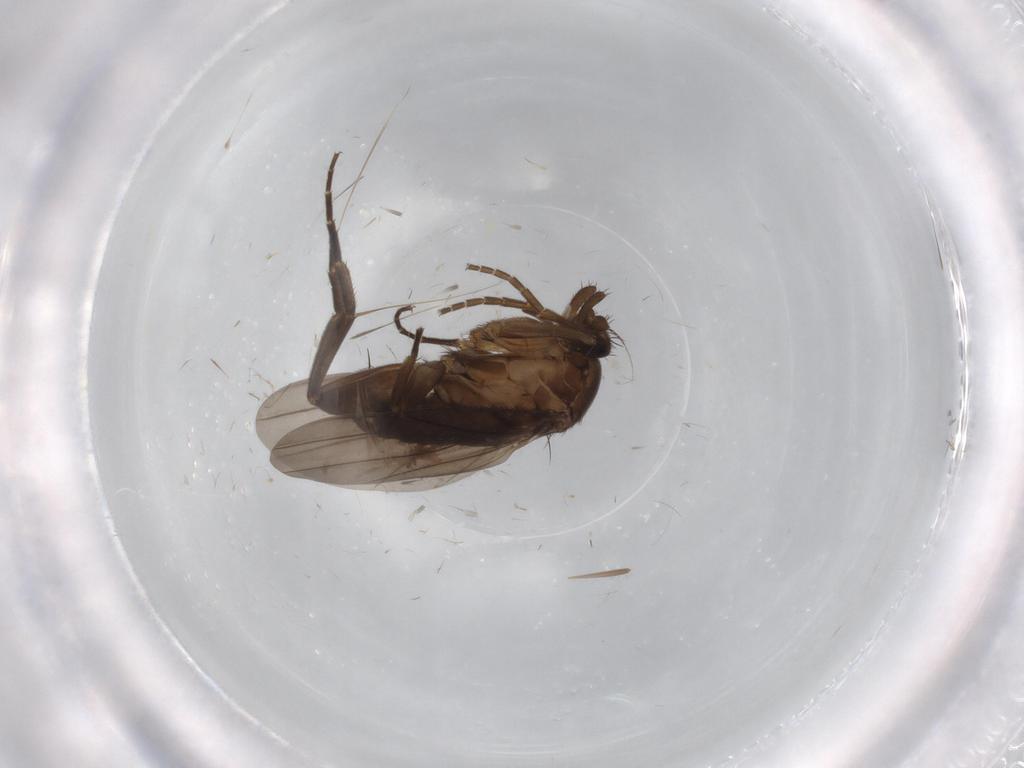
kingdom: Animalia
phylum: Arthropoda
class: Insecta
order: Diptera
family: Phoridae
